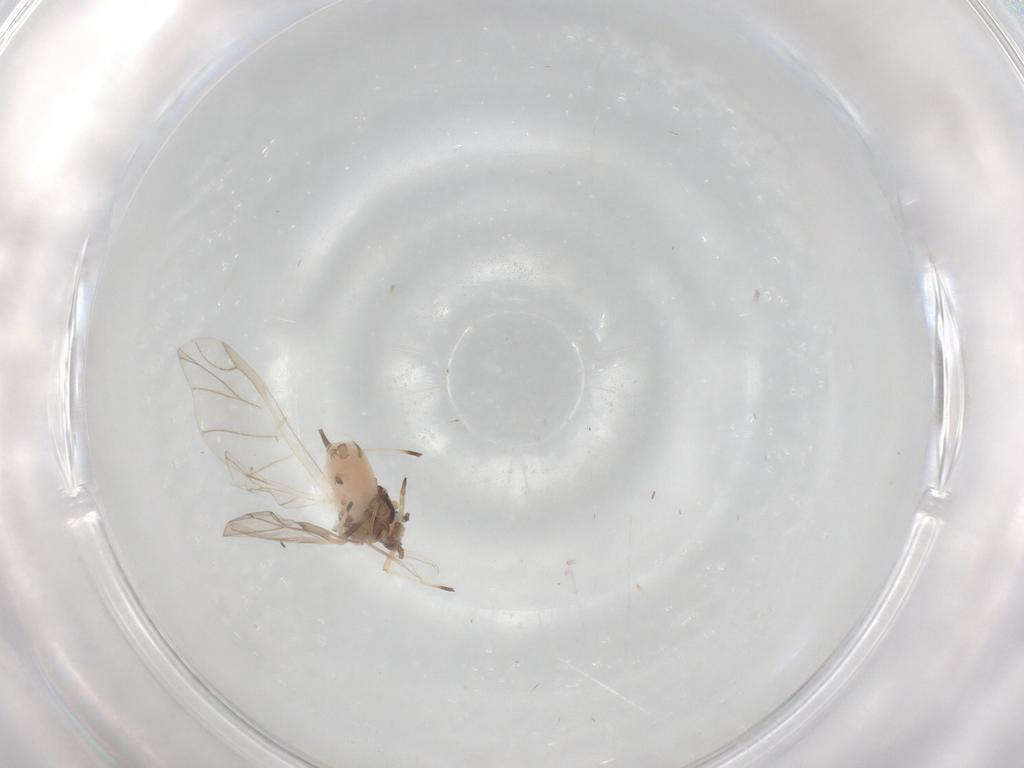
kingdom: Animalia
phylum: Arthropoda
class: Insecta
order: Hemiptera
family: Aphididae
